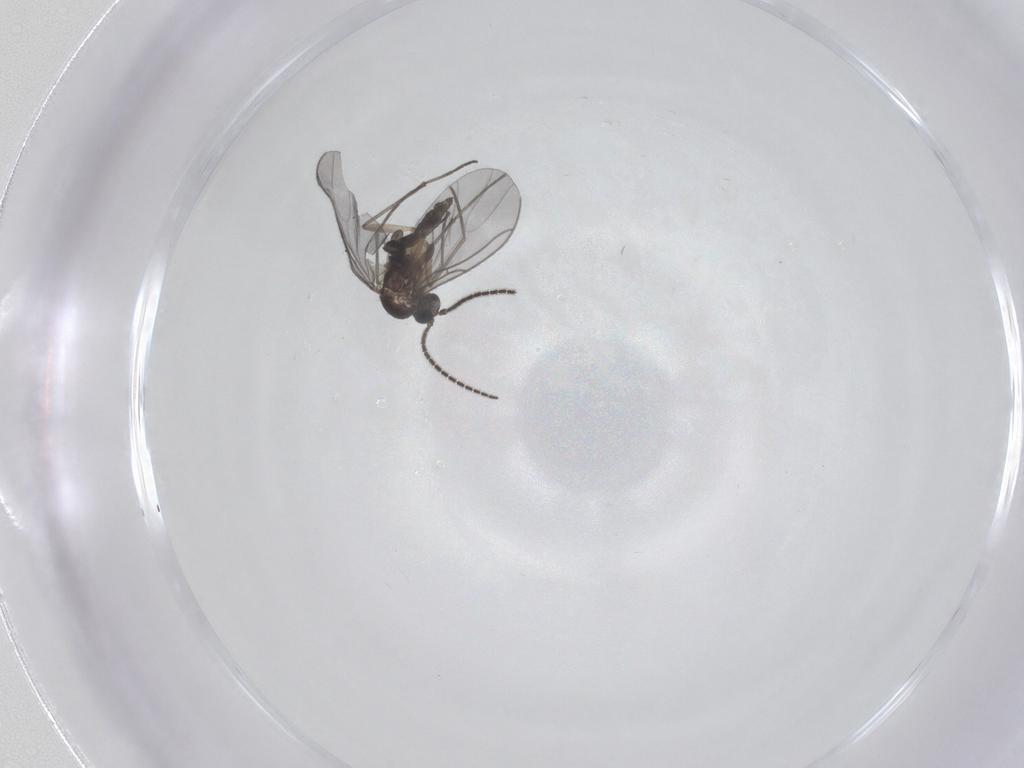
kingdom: Animalia
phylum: Arthropoda
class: Insecta
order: Diptera
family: Sciaridae
